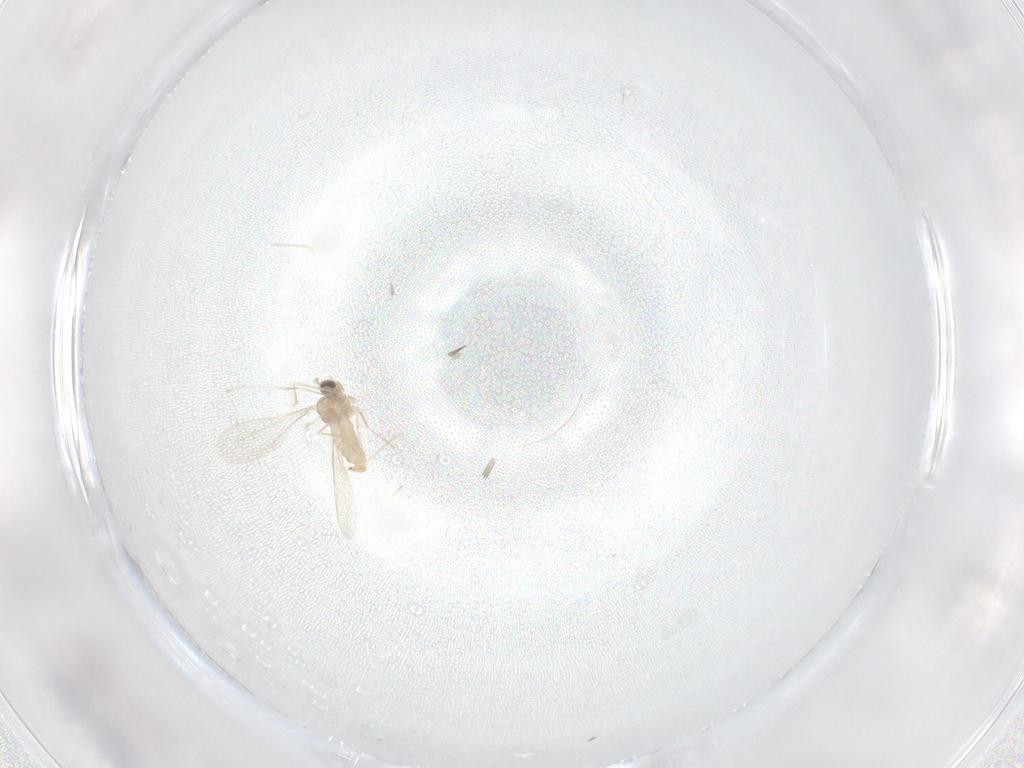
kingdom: Animalia
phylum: Arthropoda
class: Insecta
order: Diptera
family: Cecidomyiidae
